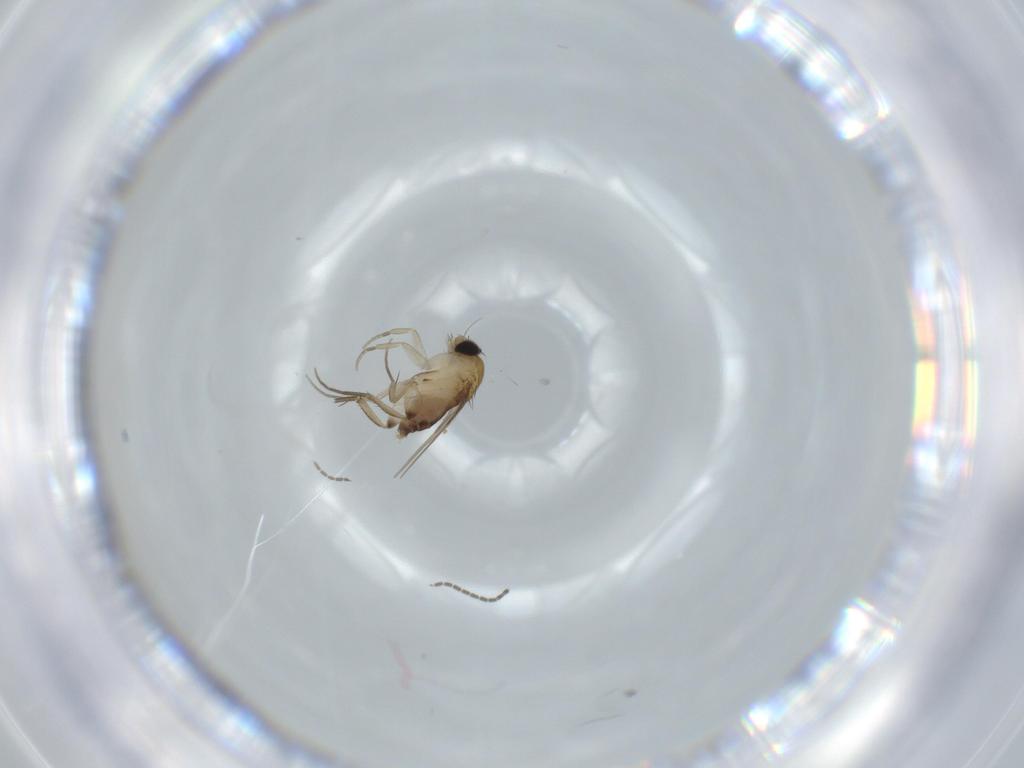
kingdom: Animalia
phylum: Arthropoda
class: Insecta
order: Diptera
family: Phoridae
